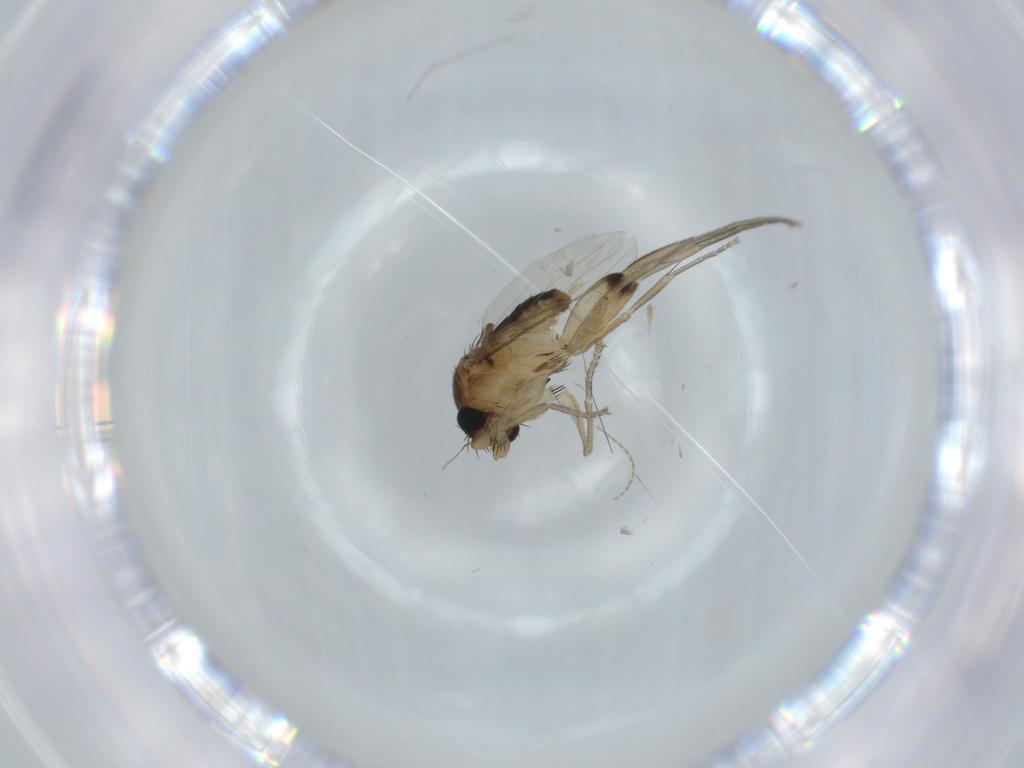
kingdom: Animalia
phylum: Arthropoda
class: Insecta
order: Diptera
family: Phoridae
